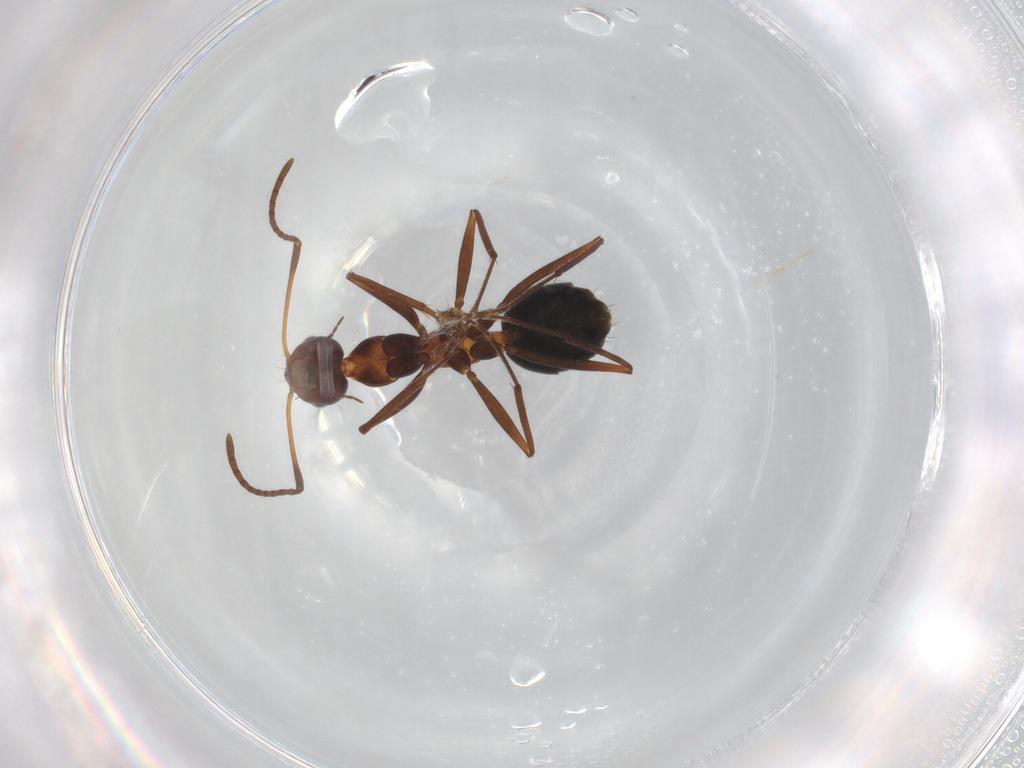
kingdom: Animalia
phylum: Arthropoda
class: Insecta
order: Hymenoptera
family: Formicidae
